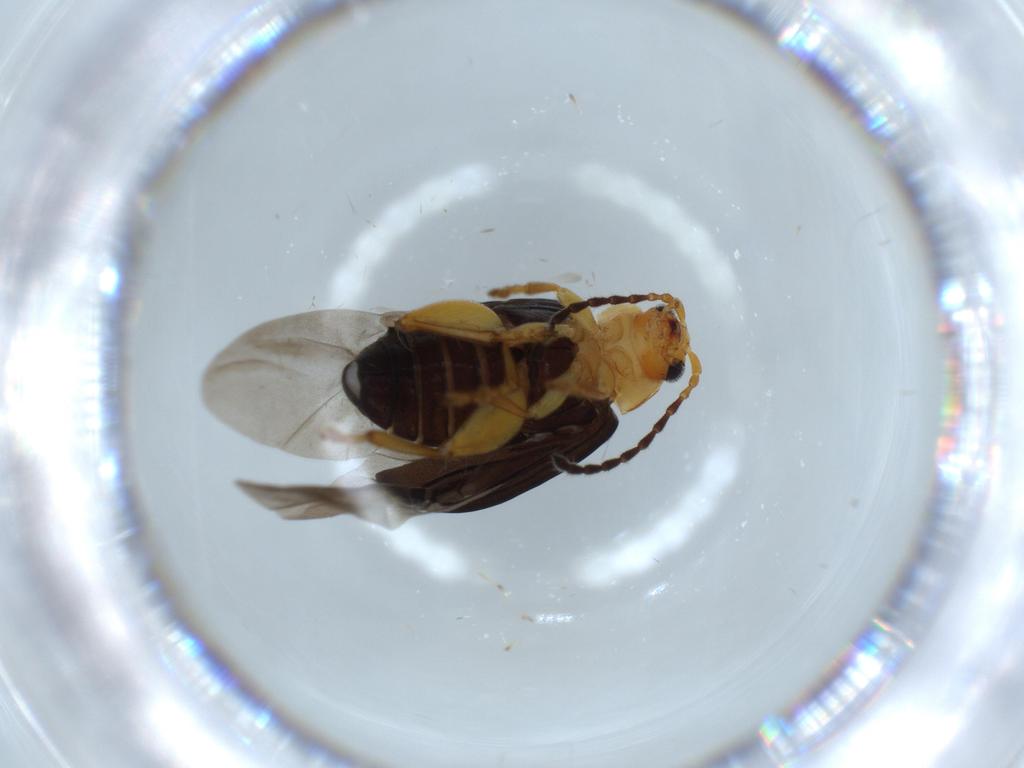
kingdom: Animalia
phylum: Arthropoda
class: Insecta
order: Coleoptera
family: Chrysomelidae
